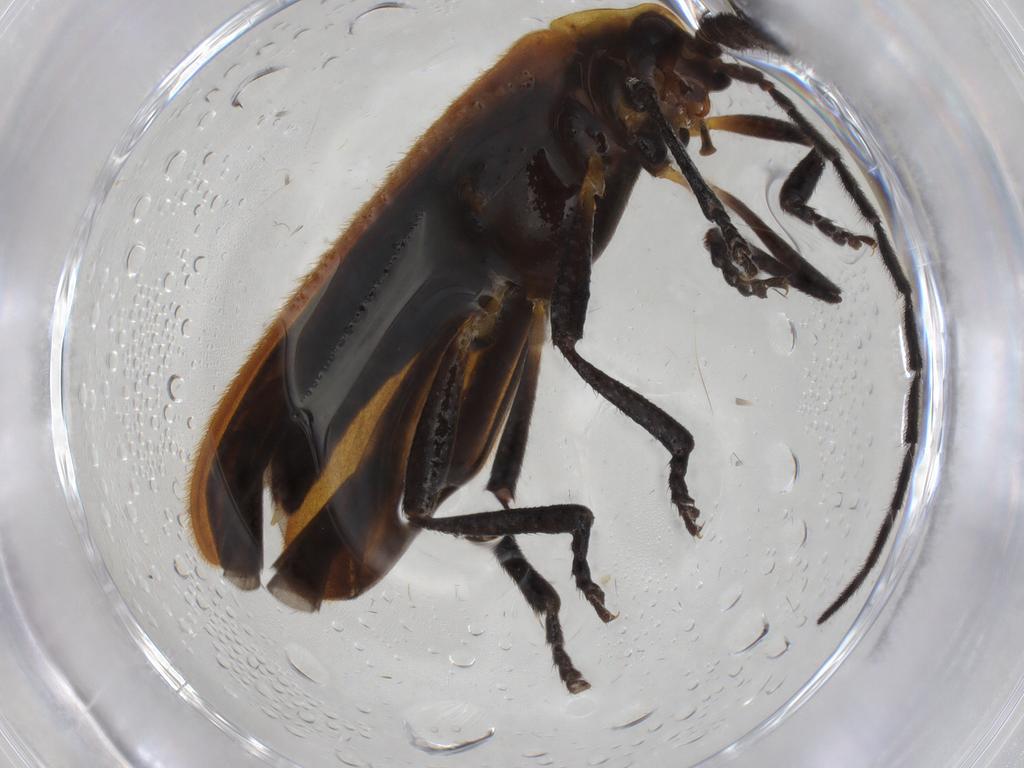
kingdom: Animalia
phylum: Arthropoda
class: Insecta
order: Coleoptera
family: Lycidae
